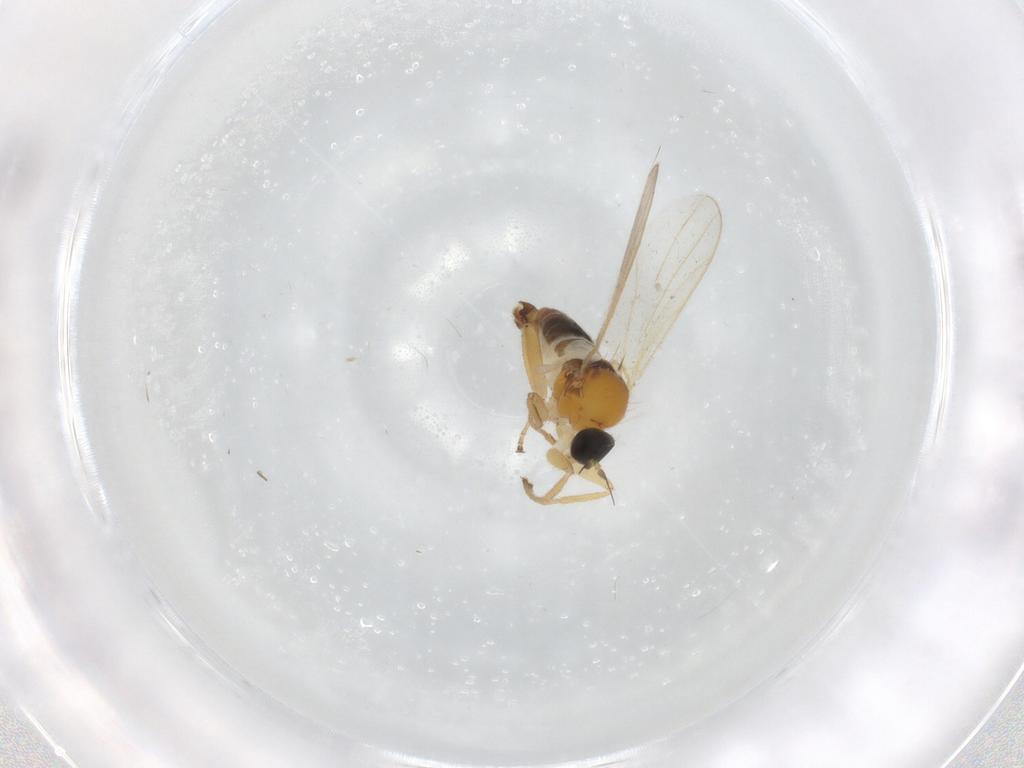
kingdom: Animalia
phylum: Arthropoda
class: Insecta
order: Diptera
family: Hybotidae
